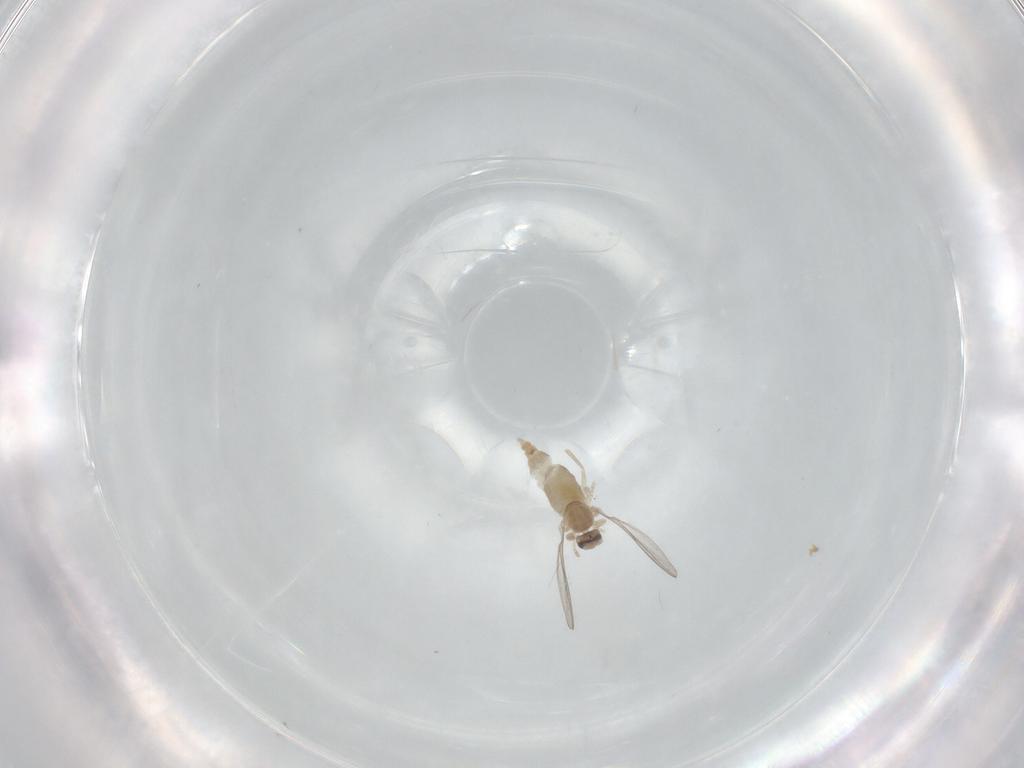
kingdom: Animalia
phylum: Arthropoda
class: Insecta
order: Diptera
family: Cecidomyiidae
